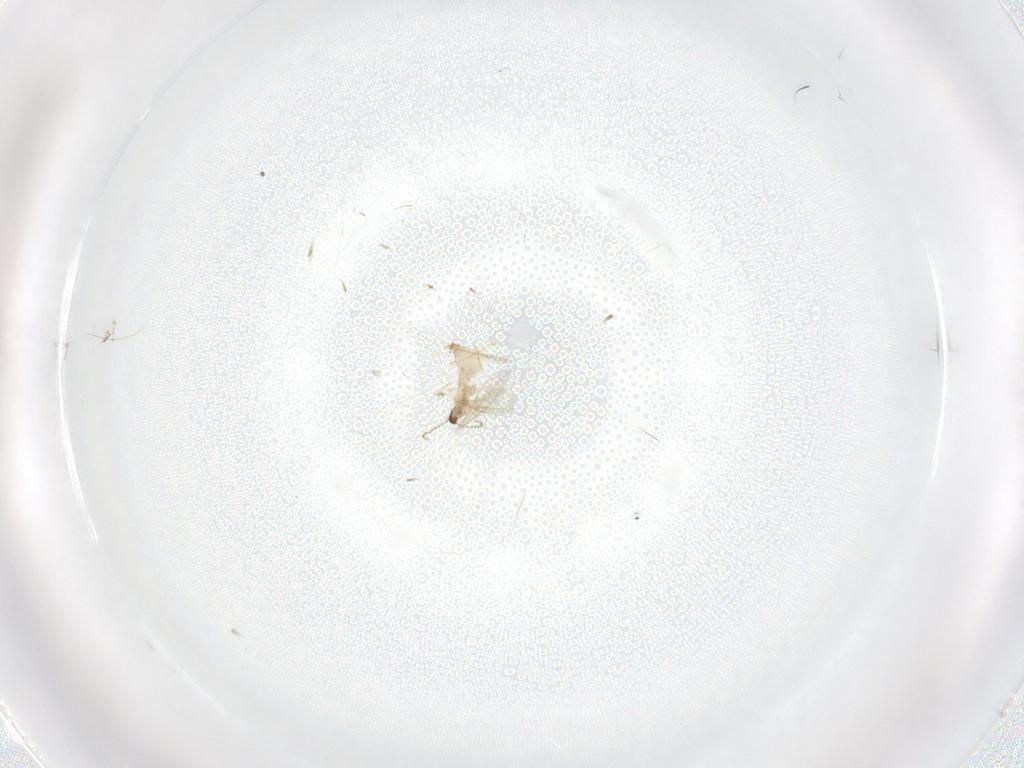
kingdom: Animalia
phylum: Arthropoda
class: Insecta
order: Diptera
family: Cecidomyiidae
